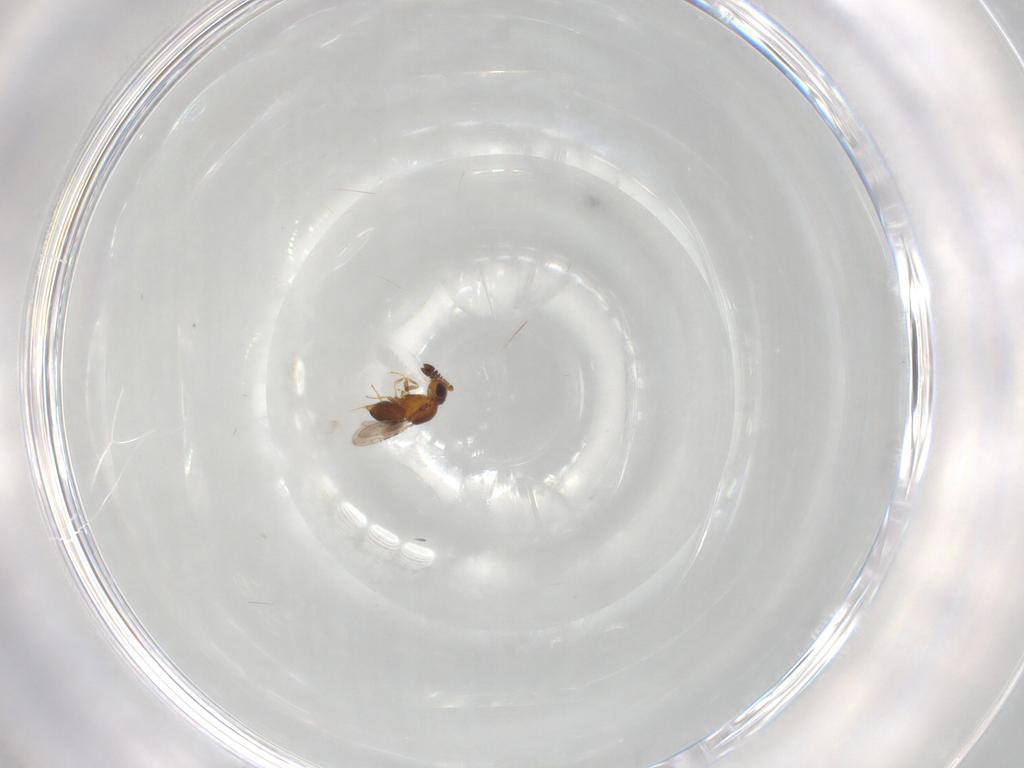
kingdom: Animalia
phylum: Arthropoda
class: Insecta
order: Hymenoptera
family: Ceraphronidae
